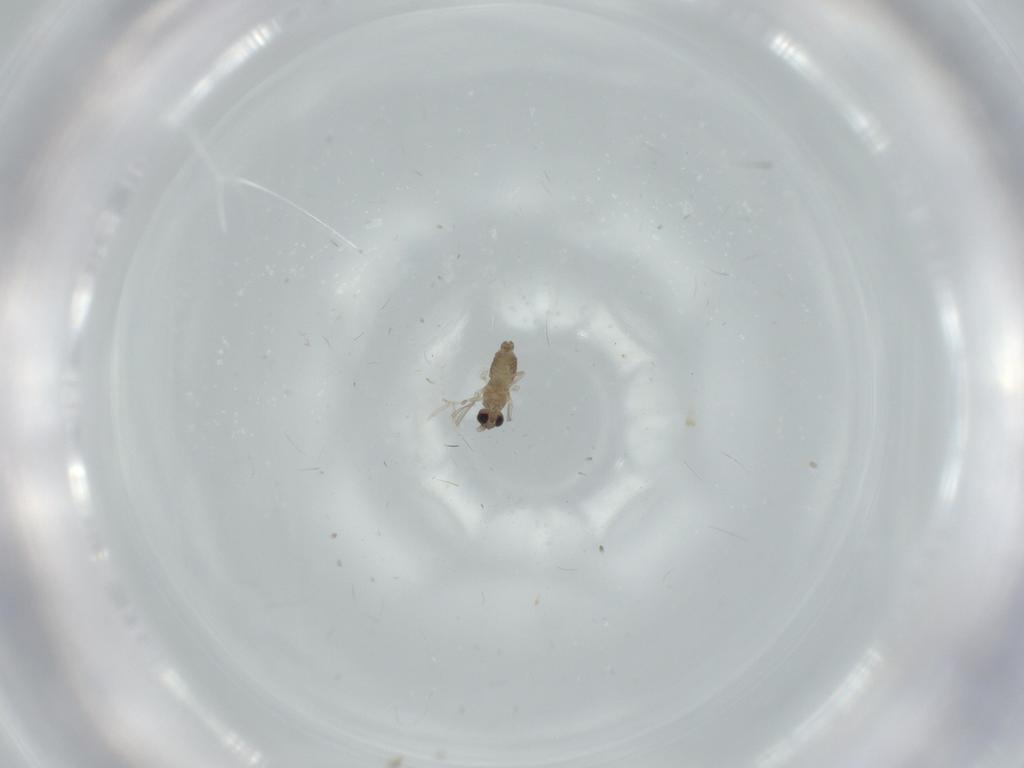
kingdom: Animalia
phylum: Arthropoda
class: Insecta
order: Diptera
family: Cecidomyiidae
